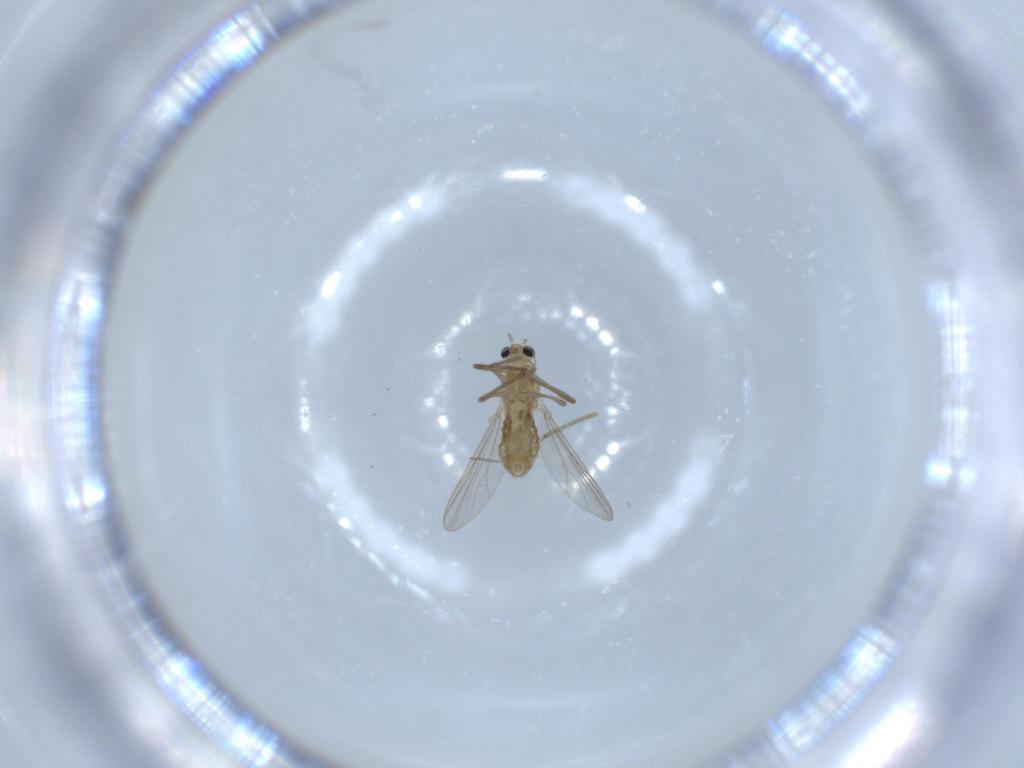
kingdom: Animalia
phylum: Arthropoda
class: Insecta
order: Diptera
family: Chironomidae
